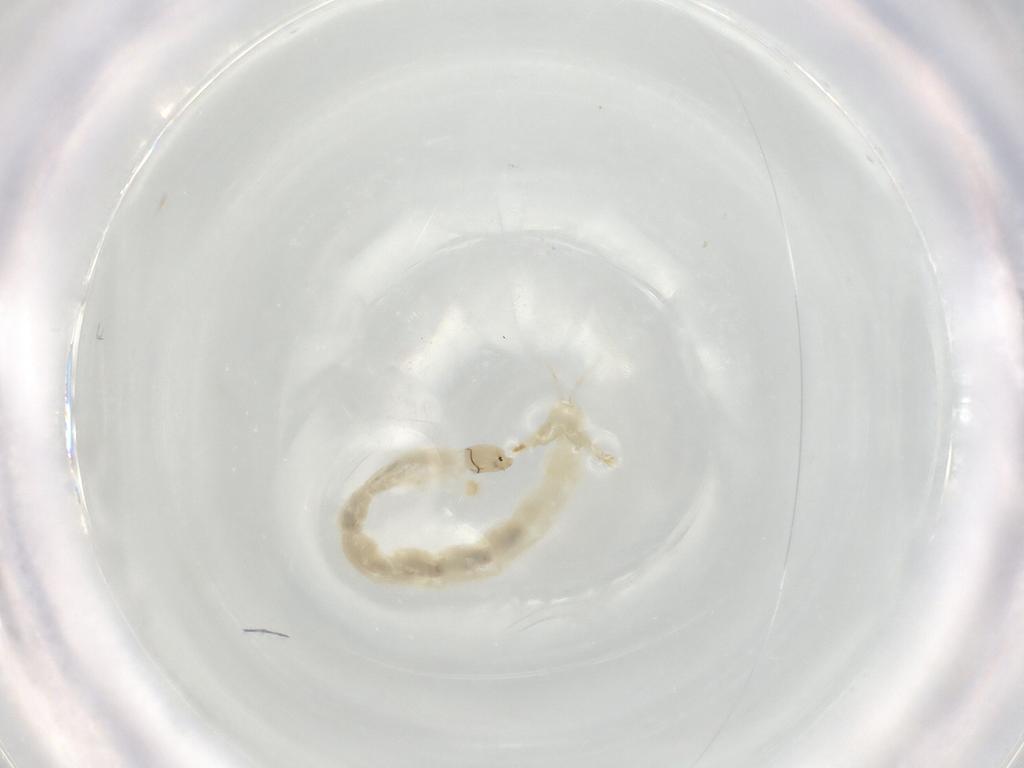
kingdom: Animalia
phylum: Arthropoda
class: Insecta
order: Diptera
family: Chironomidae
